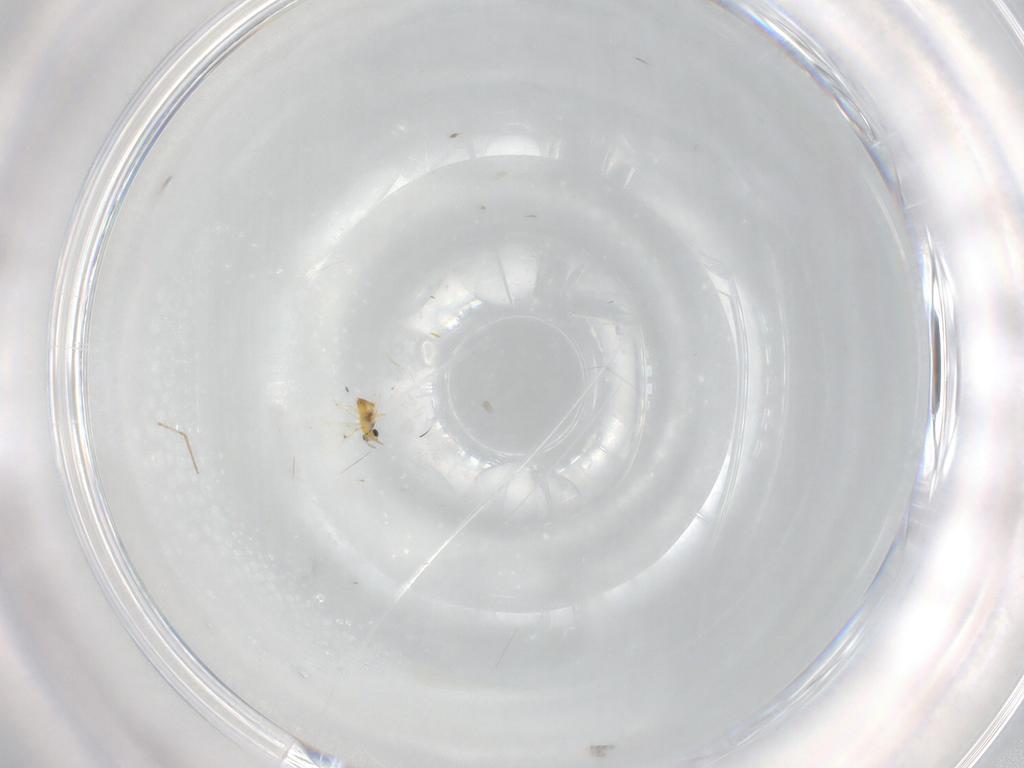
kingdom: Animalia
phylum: Arthropoda
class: Insecta
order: Hymenoptera
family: Trichogrammatidae
